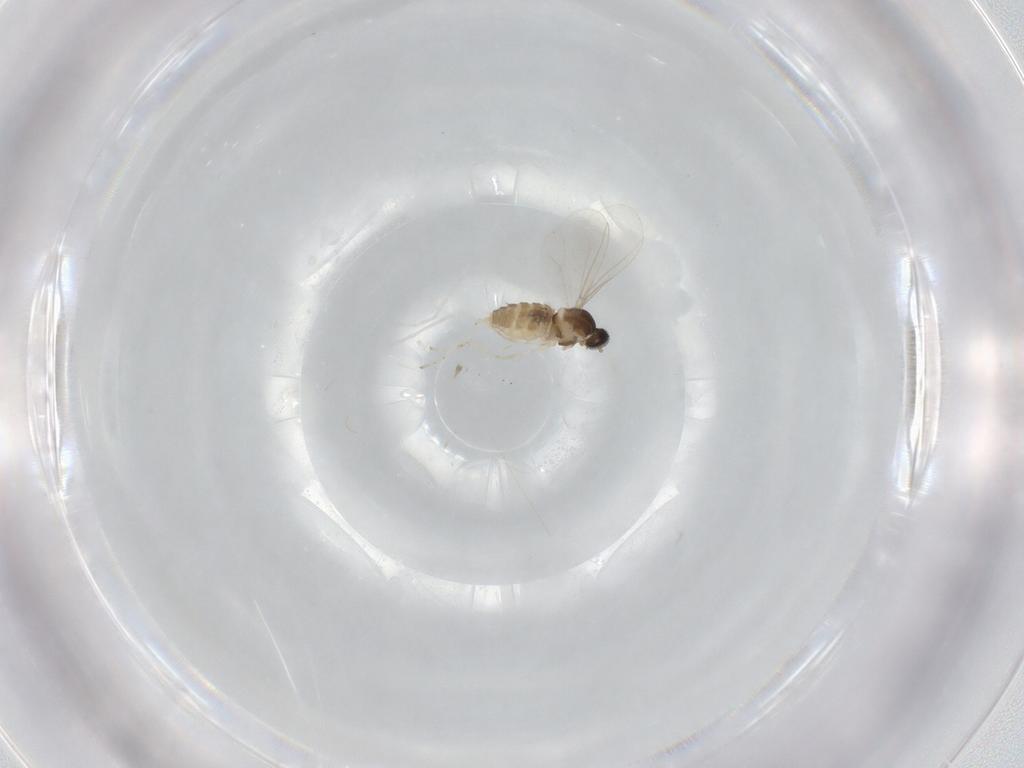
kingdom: Animalia
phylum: Arthropoda
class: Insecta
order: Diptera
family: Cecidomyiidae
